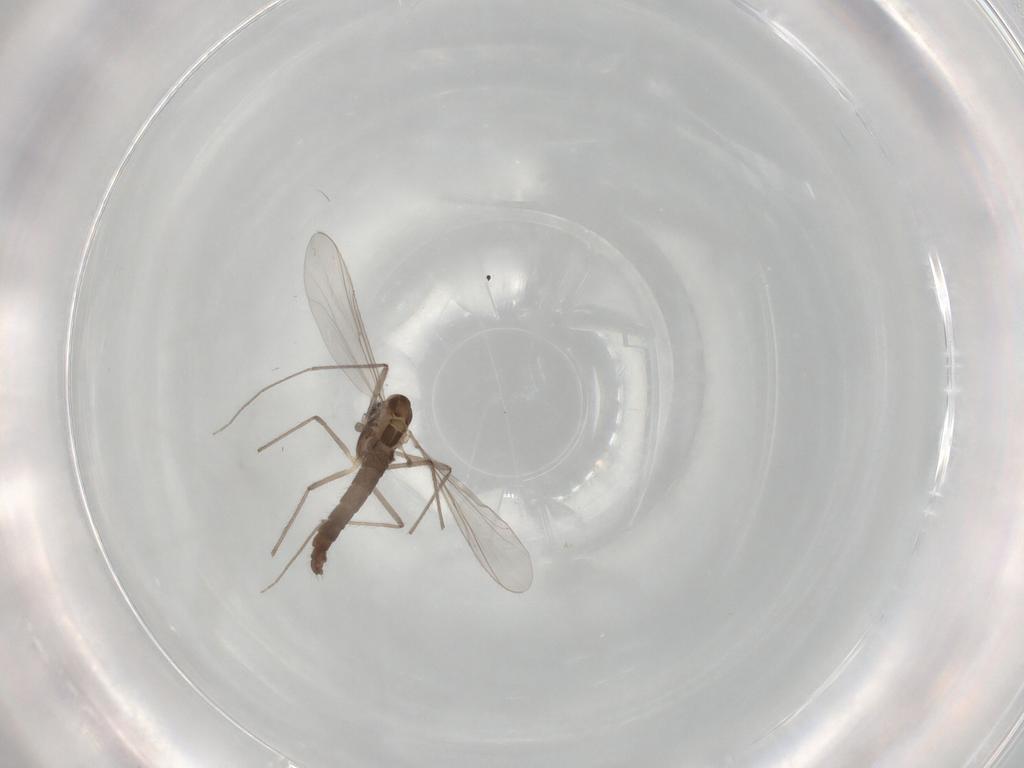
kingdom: Animalia
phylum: Arthropoda
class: Insecta
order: Diptera
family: Chironomidae
